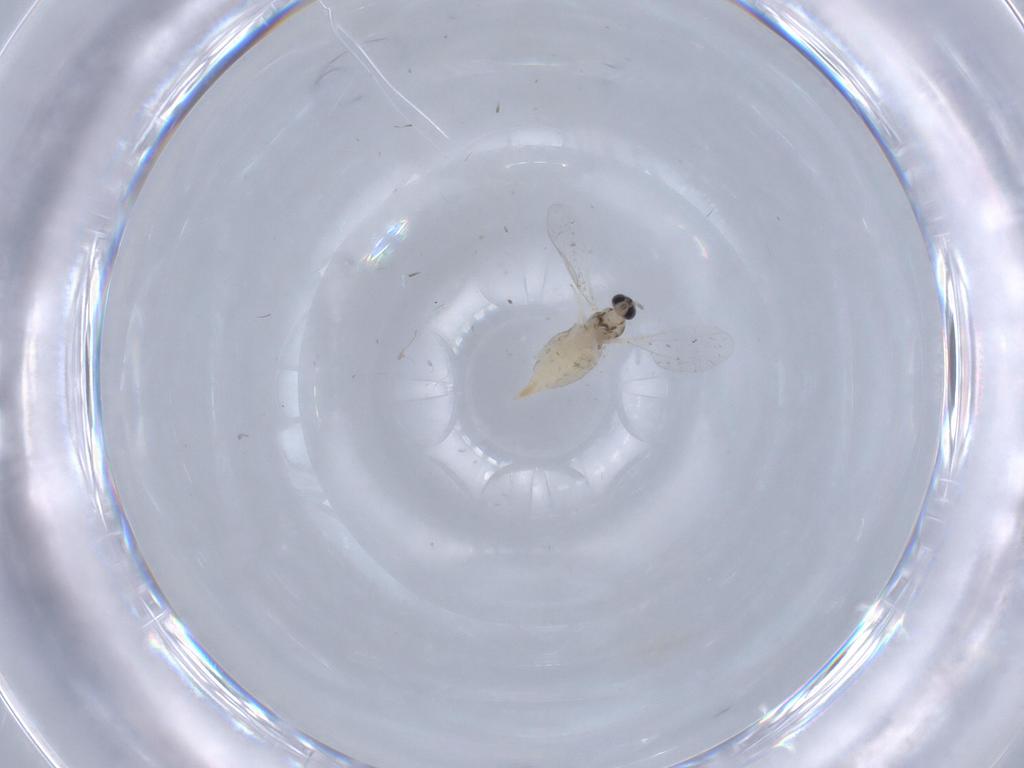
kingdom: Animalia
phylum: Arthropoda
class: Insecta
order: Diptera
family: Cecidomyiidae
